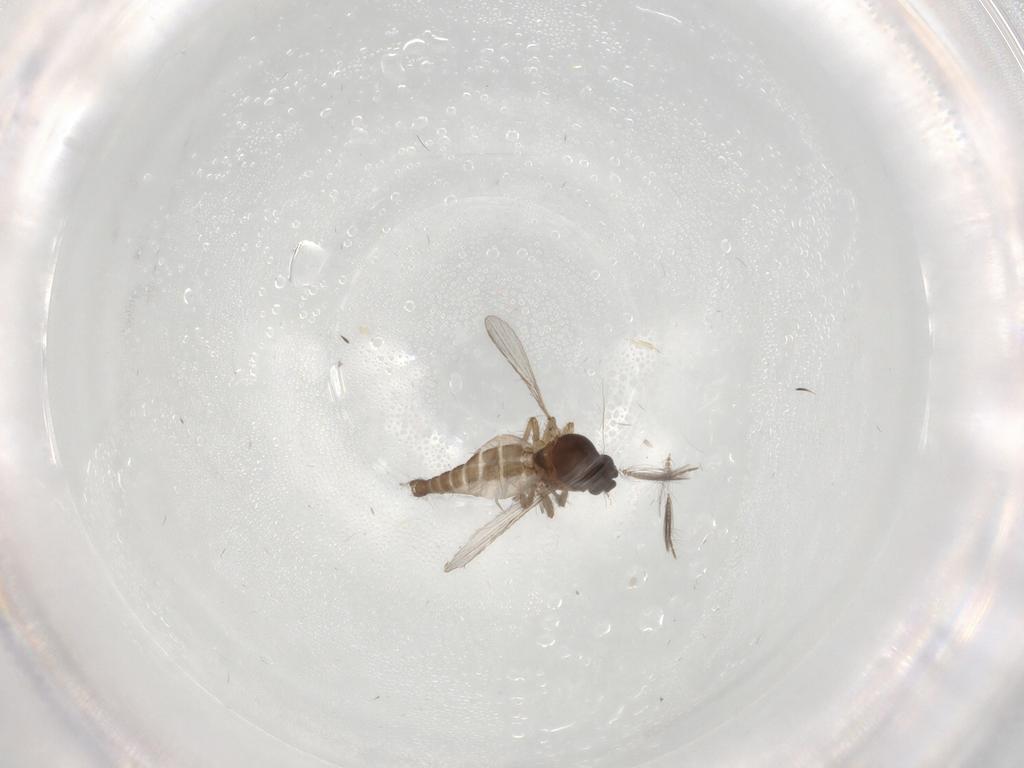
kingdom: Animalia
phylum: Arthropoda
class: Insecta
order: Diptera
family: Ceratopogonidae
